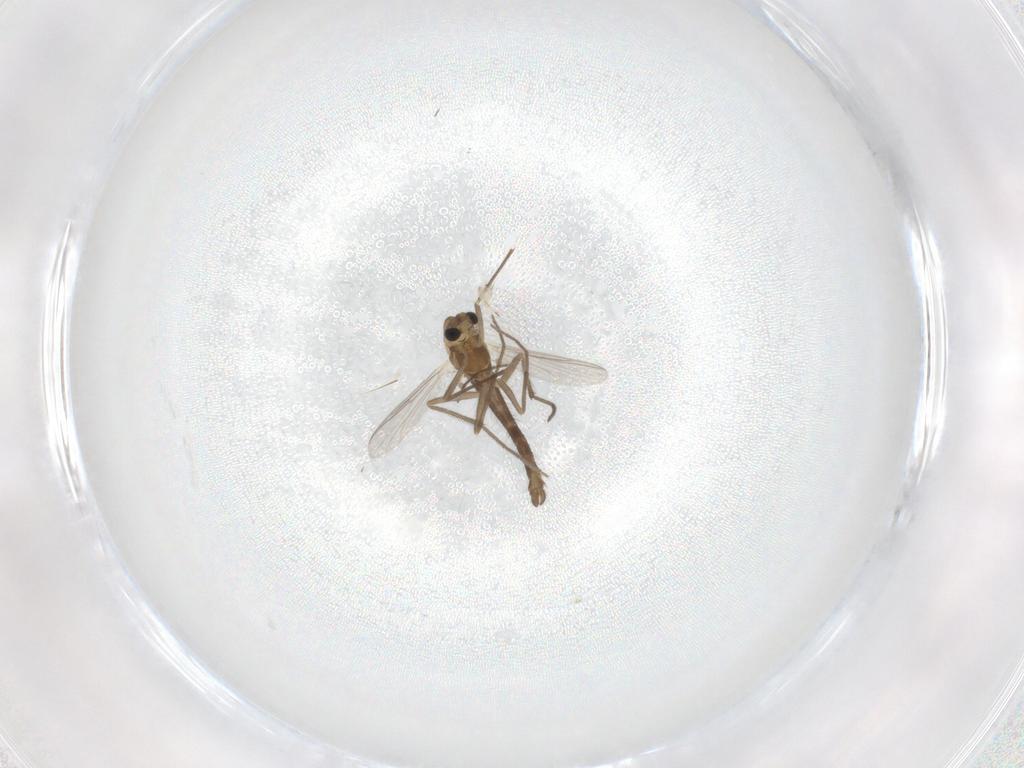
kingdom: Animalia
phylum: Arthropoda
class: Insecta
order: Diptera
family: Chironomidae
